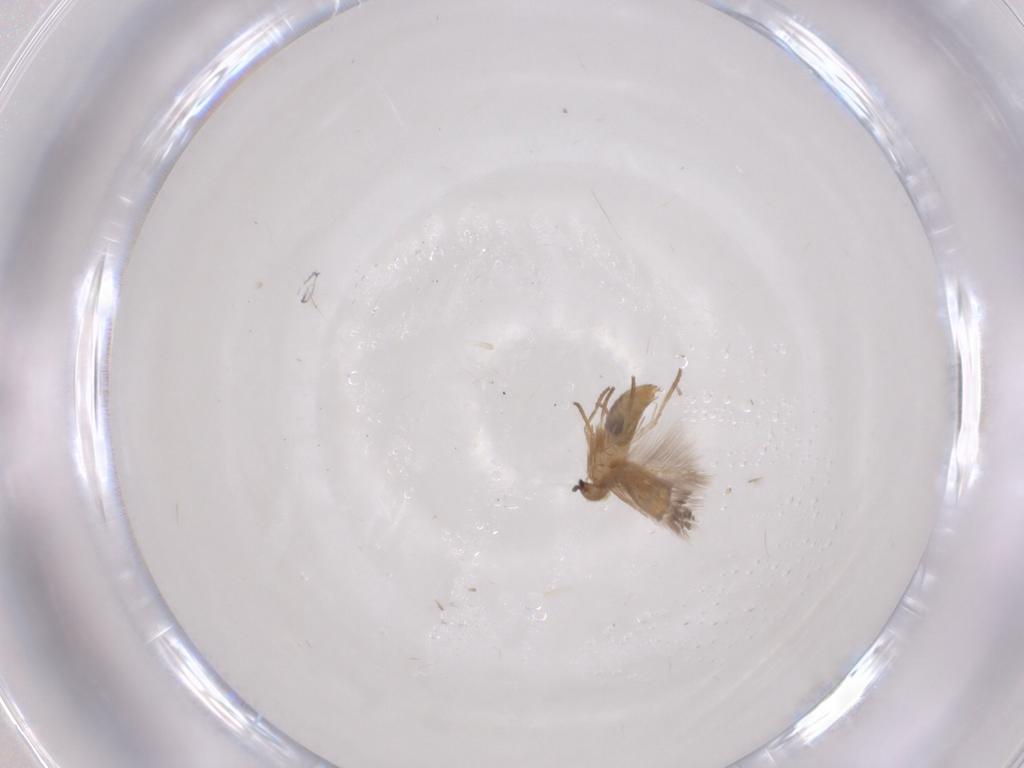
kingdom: Animalia
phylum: Arthropoda
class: Insecta
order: Lepidoptera
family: Heliozelidae
